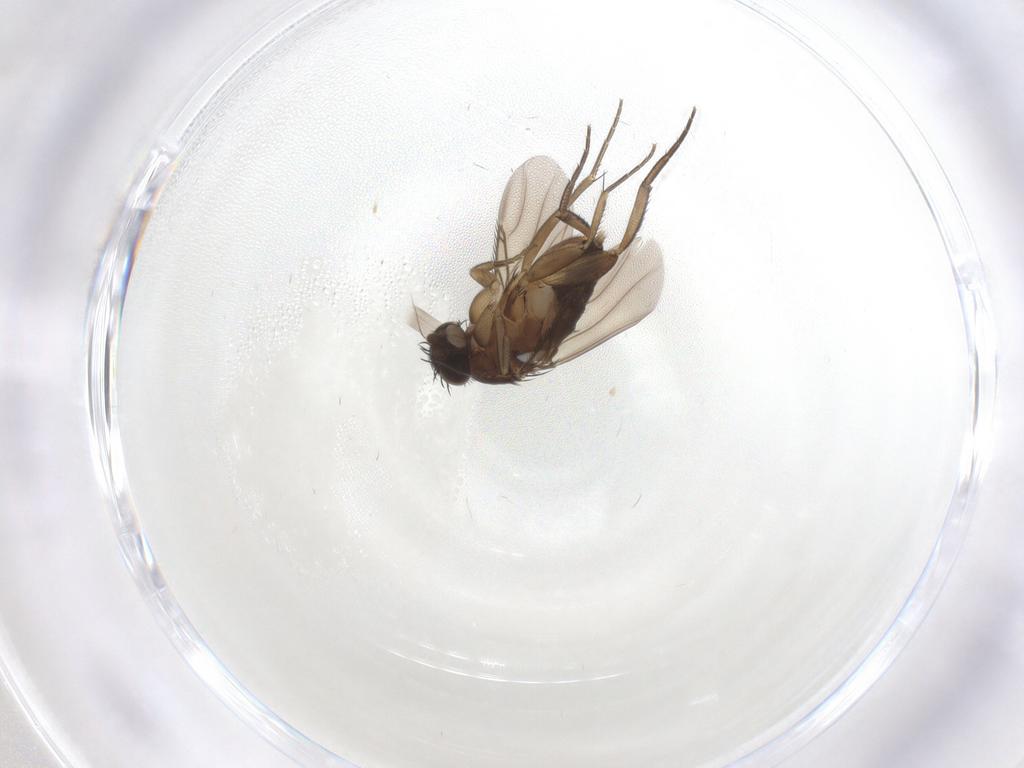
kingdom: Animalia
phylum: Arthropoda
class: Insecta
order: Diptera
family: Phoridae
